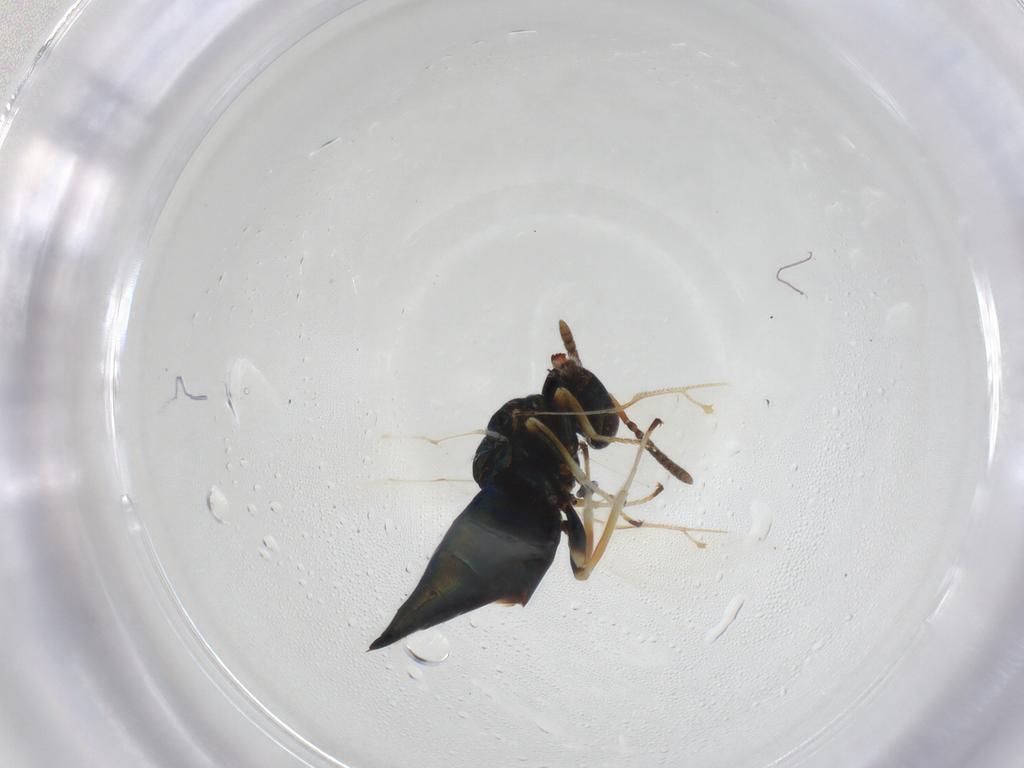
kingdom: Animalia
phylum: Arthropoda
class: Insecta
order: Hymenoptera
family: Pteromalidae
